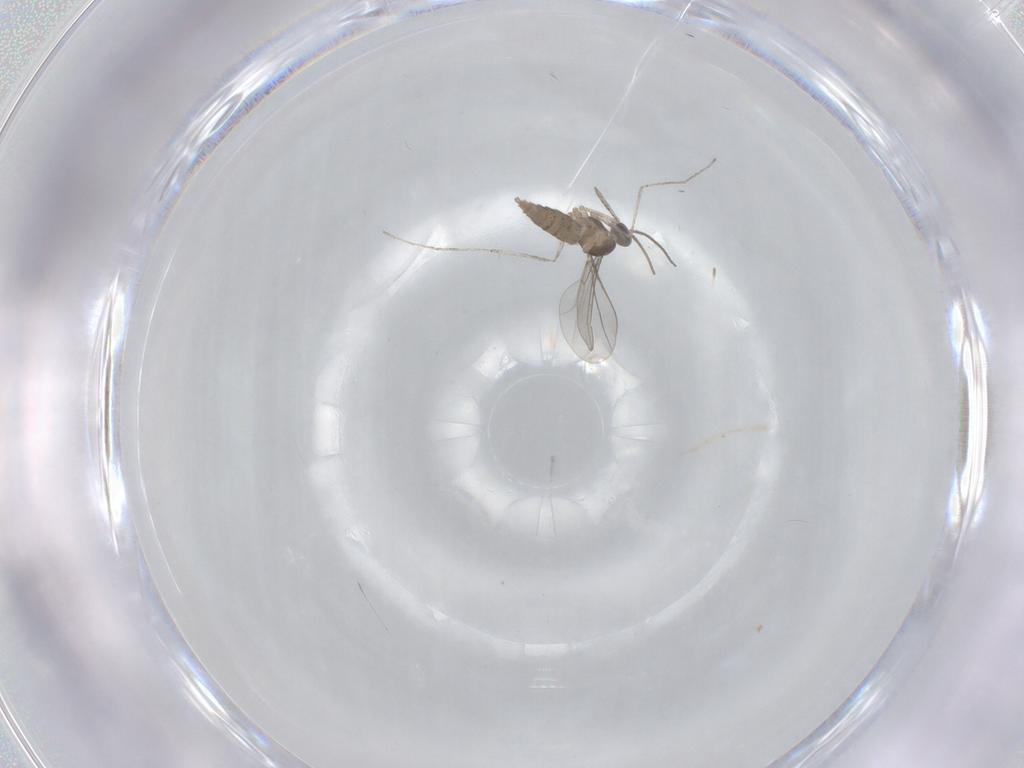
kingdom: Animalia
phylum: Arthropoda
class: Insecta
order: Diptera
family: Cecidomyiidae
